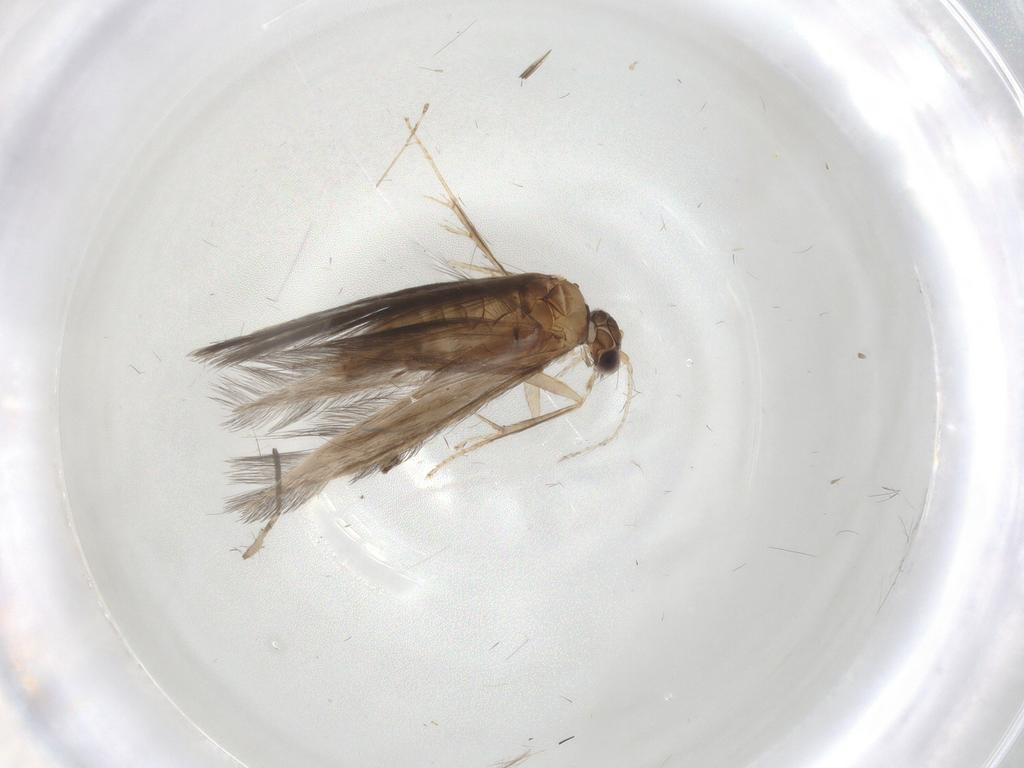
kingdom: Animalia
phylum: Arthropoda
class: Insecta
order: Trichoptera
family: Hydroptilidae
